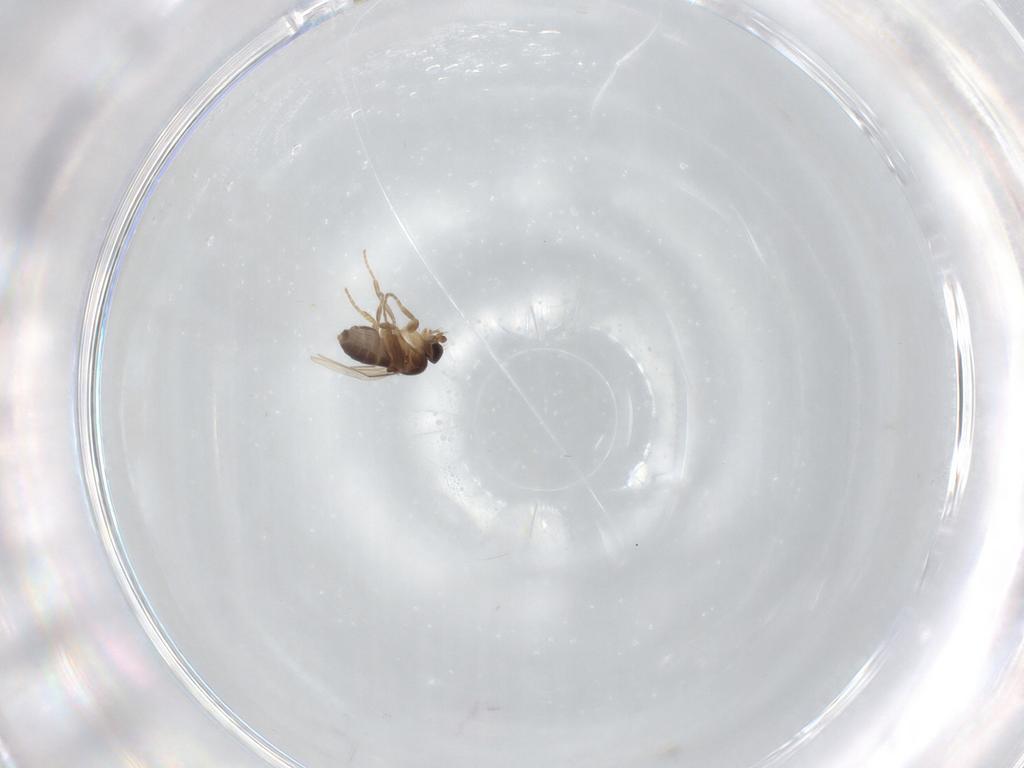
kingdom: Animalia
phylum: Arthropoda
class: Insecta
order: Diptera
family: Phoridae
